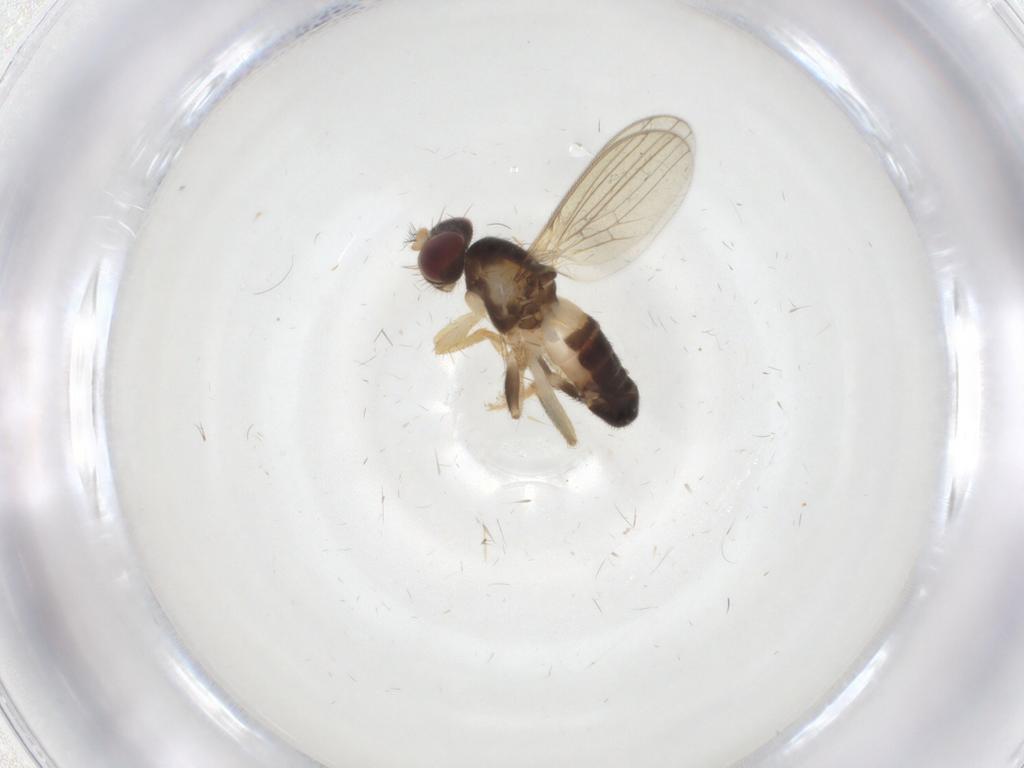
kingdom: Animalia
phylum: Arthropoda
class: Insecta
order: Diptera
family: Periscelididae
